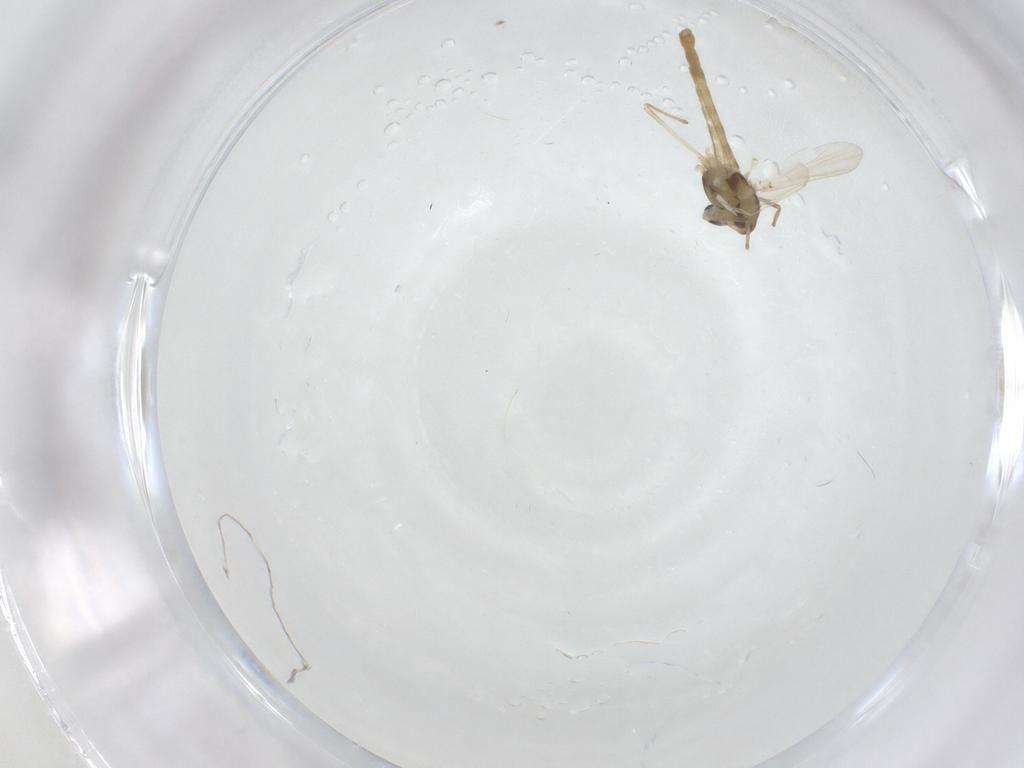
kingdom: Animalia
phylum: Arthropoda
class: Insecta
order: Diptera
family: Chironomidae
